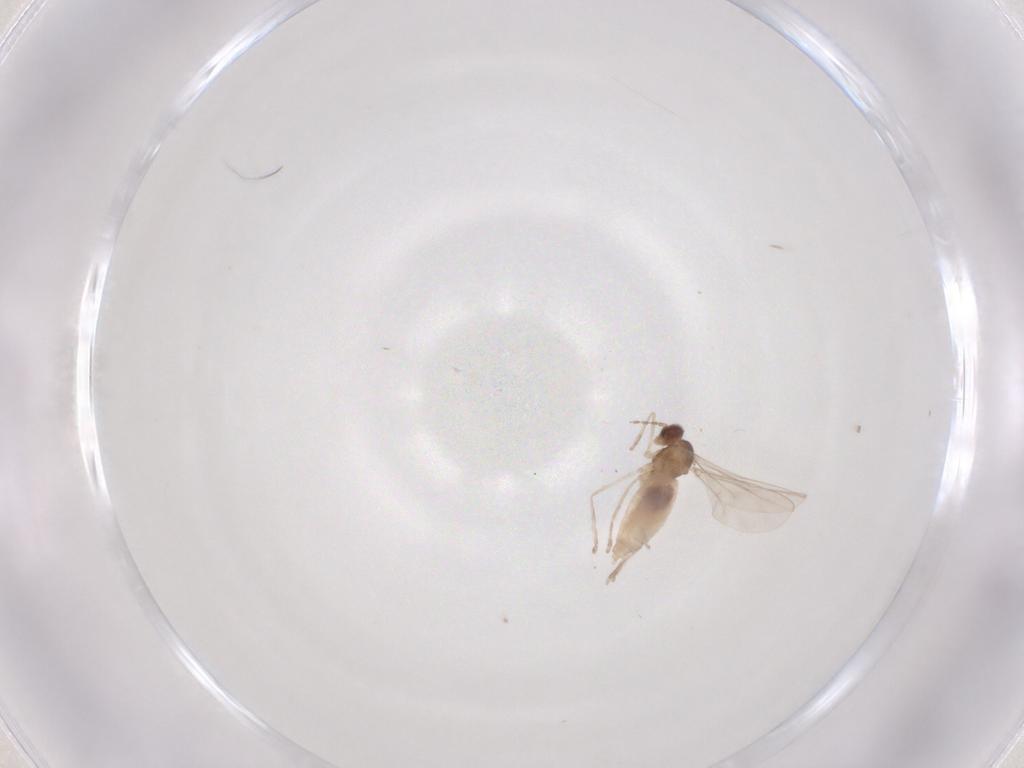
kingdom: Animalia
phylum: Arthropoda
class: Insecta
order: Diptera
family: Cecidomyiidae
